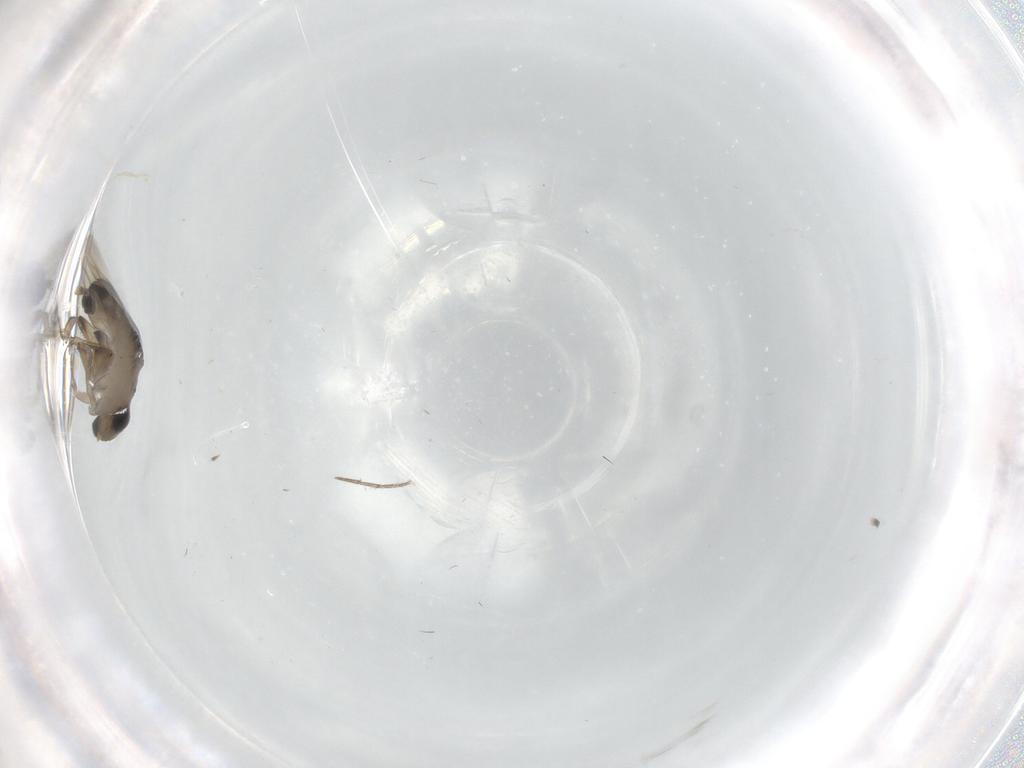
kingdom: Animalia
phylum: Arthropoda
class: Insecta
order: Diptera
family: Phoridae
